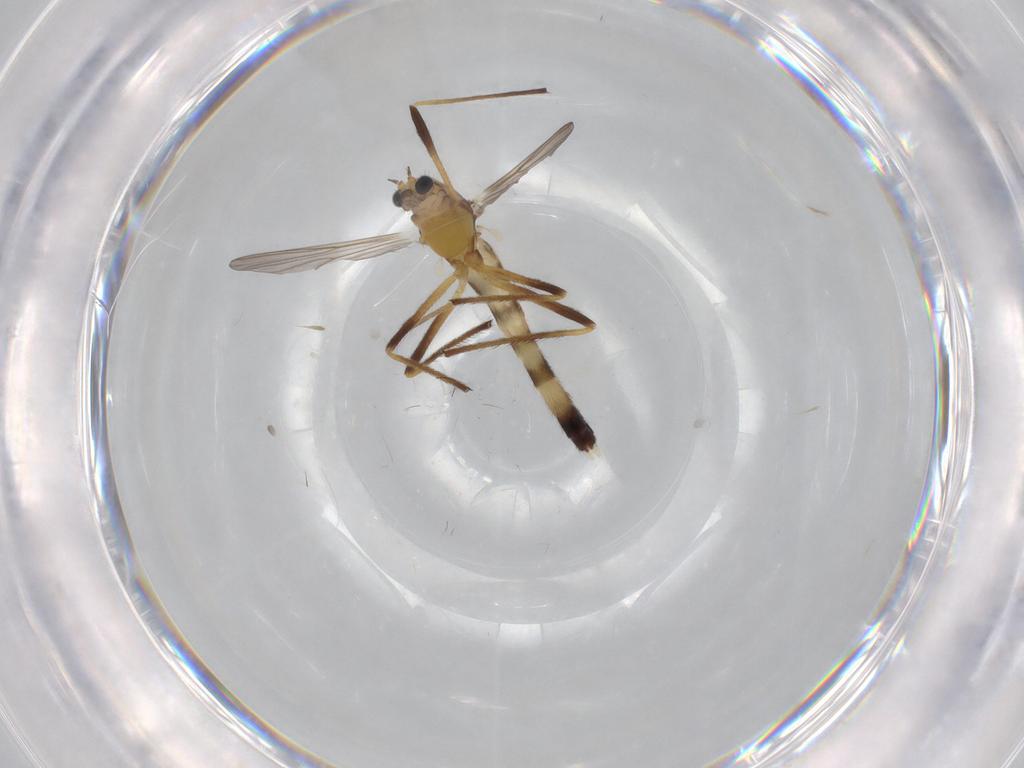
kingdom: Animalia
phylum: Arthropoda
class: Insecta
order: Diptera
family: Chironomidae
